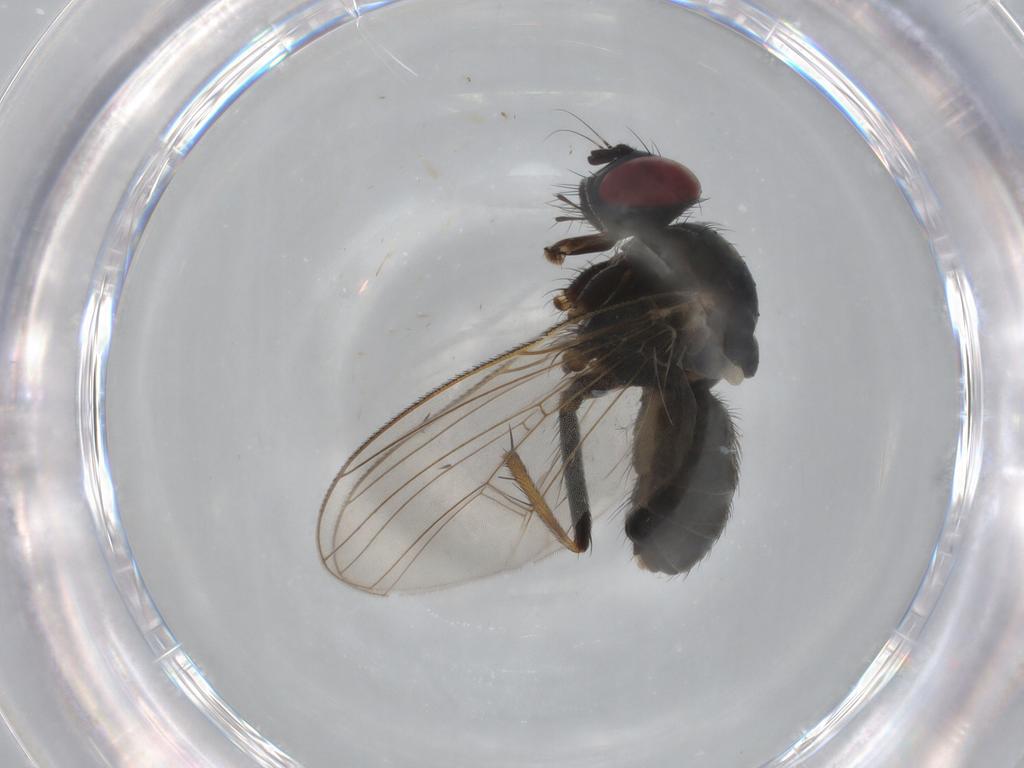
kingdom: Animalia
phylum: Arthropoda
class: Insecta
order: Diptera
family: Muscidae
